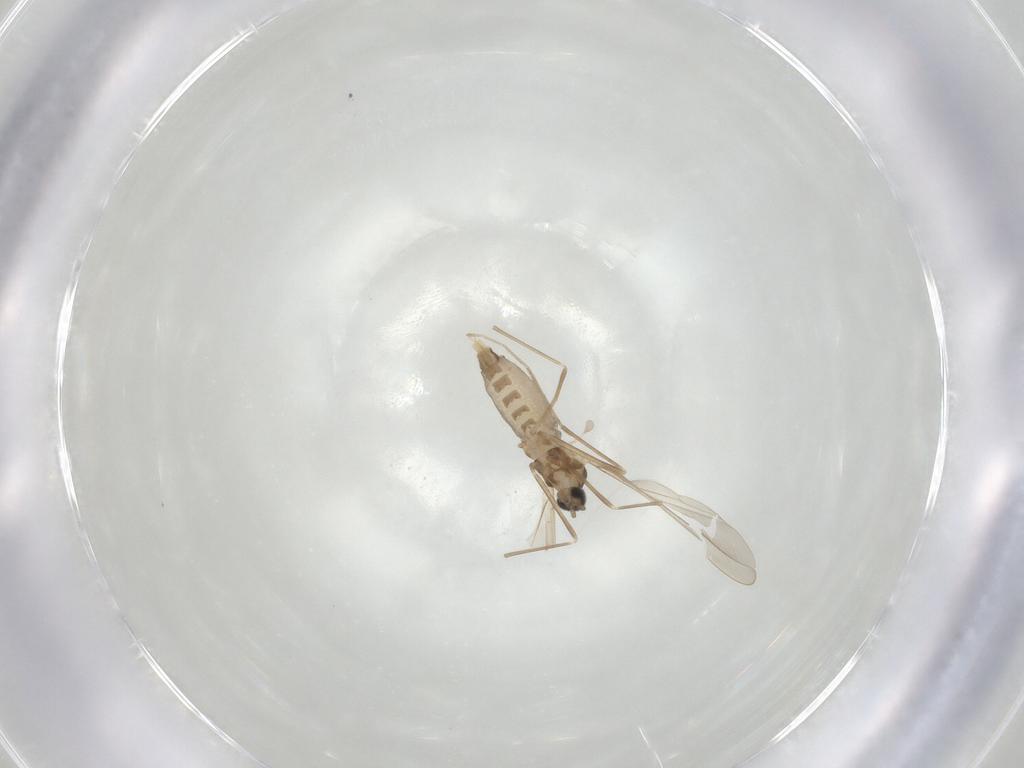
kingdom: Animalia
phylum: Arthropoda
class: Insecta
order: Diptera
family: Cecidomyiidae
